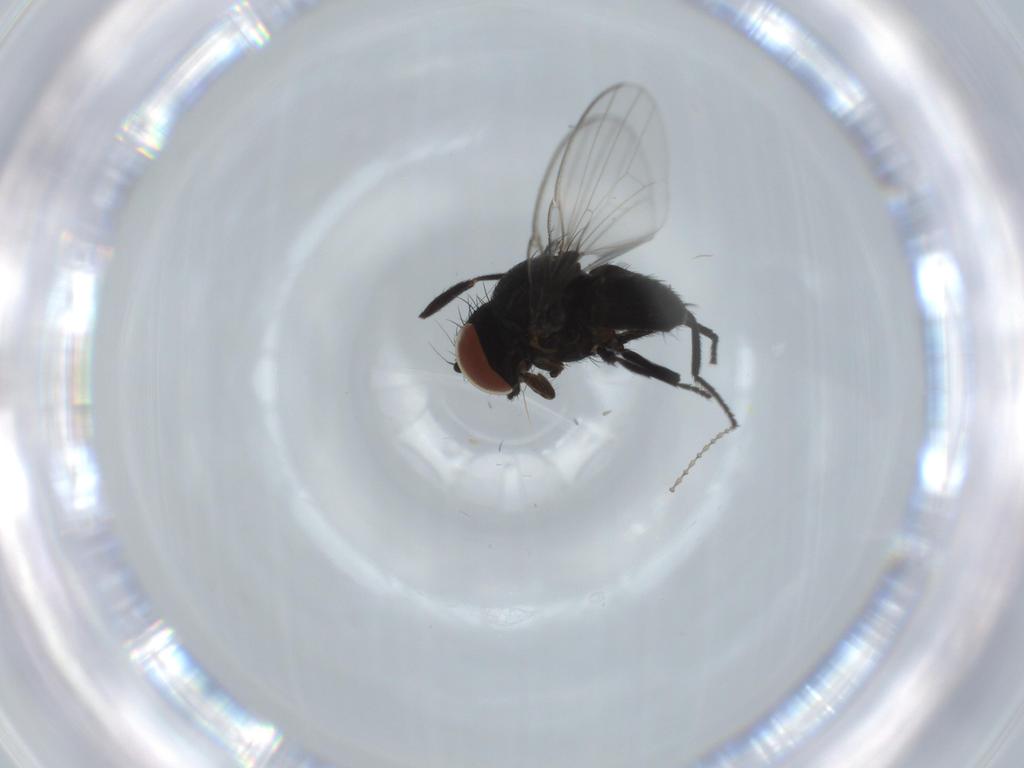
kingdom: Animalia
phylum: Arthropoda
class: Insecta
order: Diptera
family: Milichiidae
